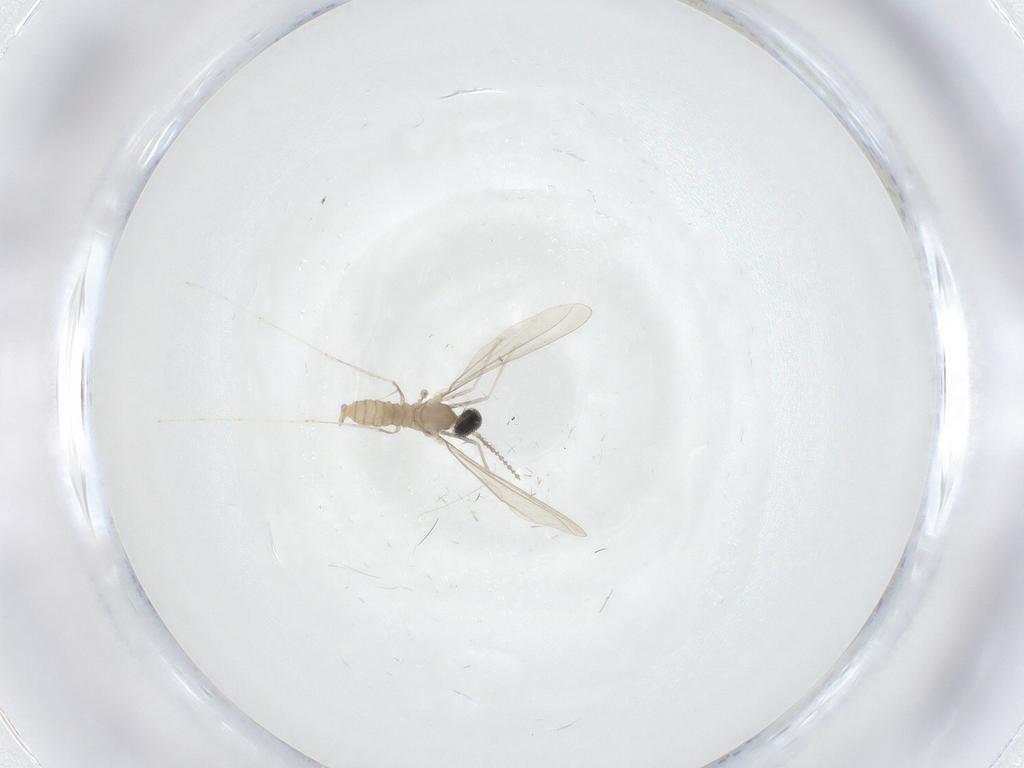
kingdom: Animalia
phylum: Arthropoda
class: Insecta
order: Diptera
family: Cecidomyiidae
